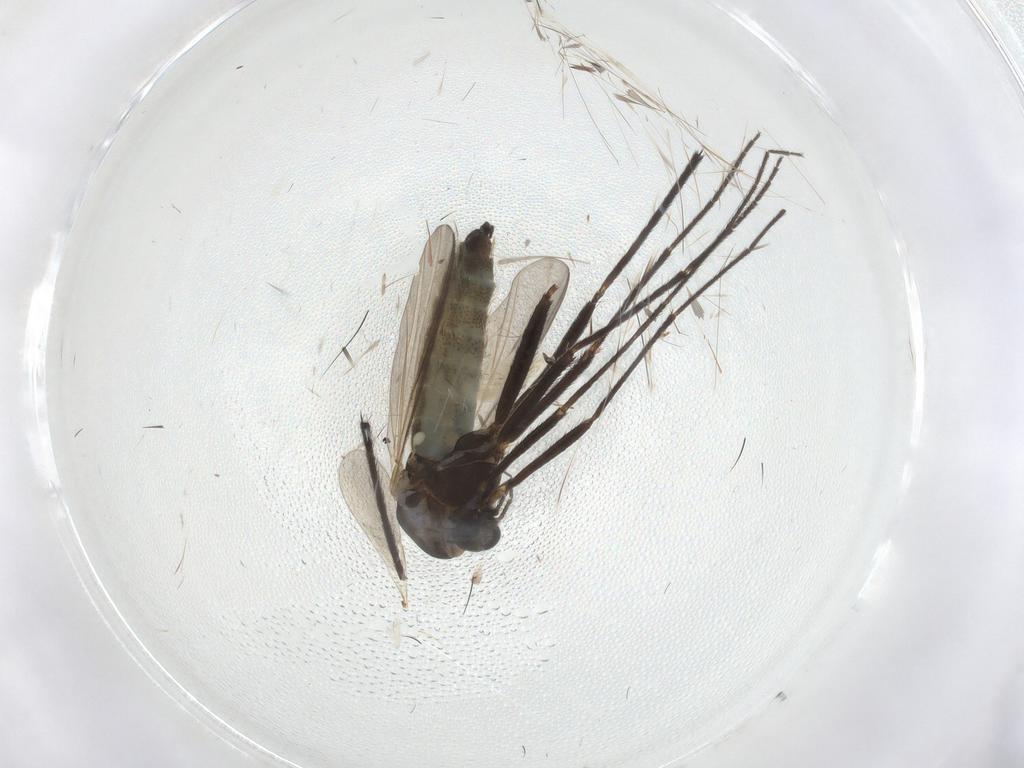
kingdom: Animalia
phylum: Arthropoda
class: Insecta
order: Diptera
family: Chironomidae
